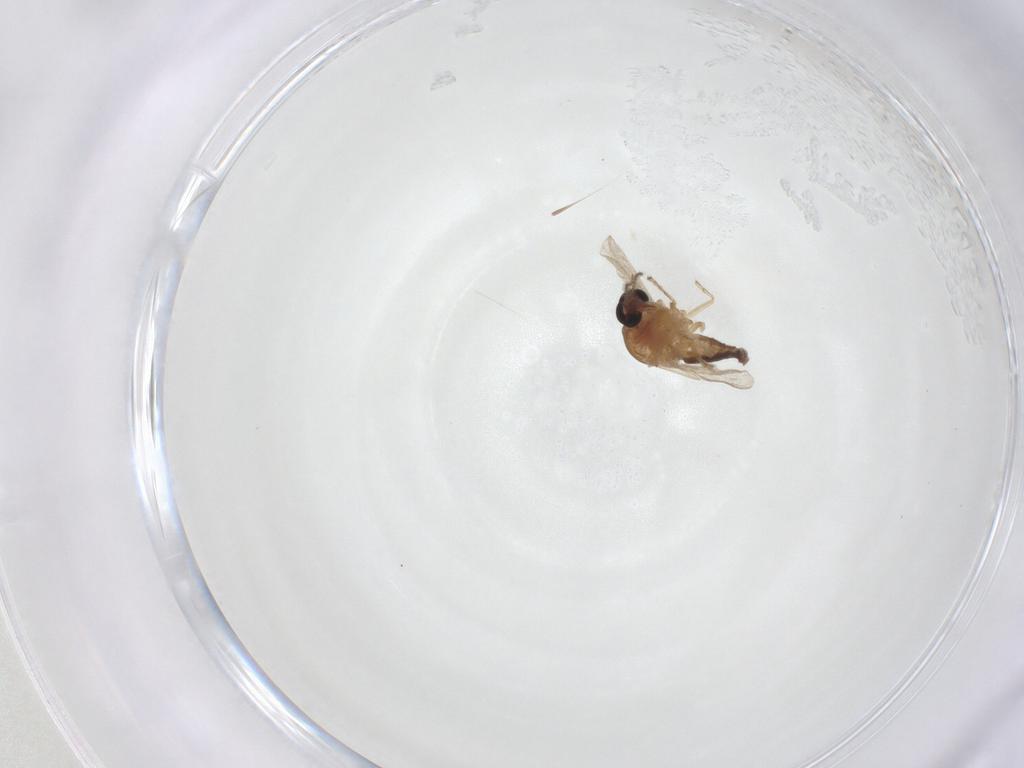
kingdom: Animalia
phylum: Arthropoda
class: Insecta
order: Diptera
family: Ceratopogonidae
